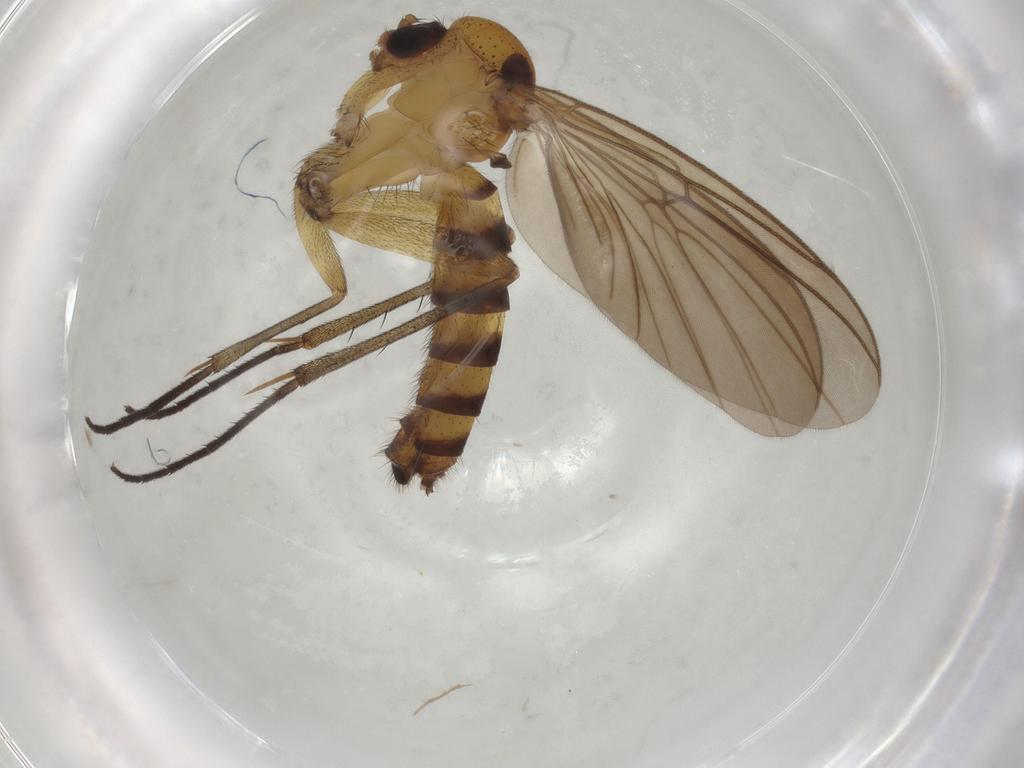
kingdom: Animalia
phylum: Arthropoda
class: Insecta
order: Diptera
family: Mycetophilidae
